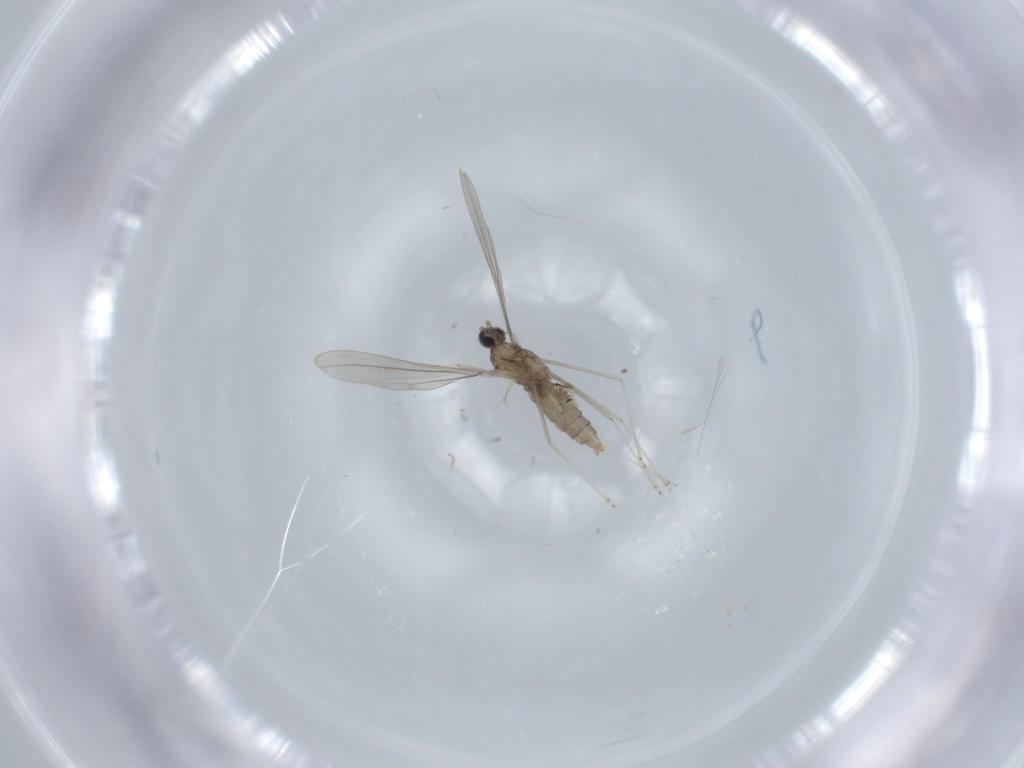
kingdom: Animalia
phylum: Arthropoda
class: Insecta
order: Diptera
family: Cecidomyiidae
